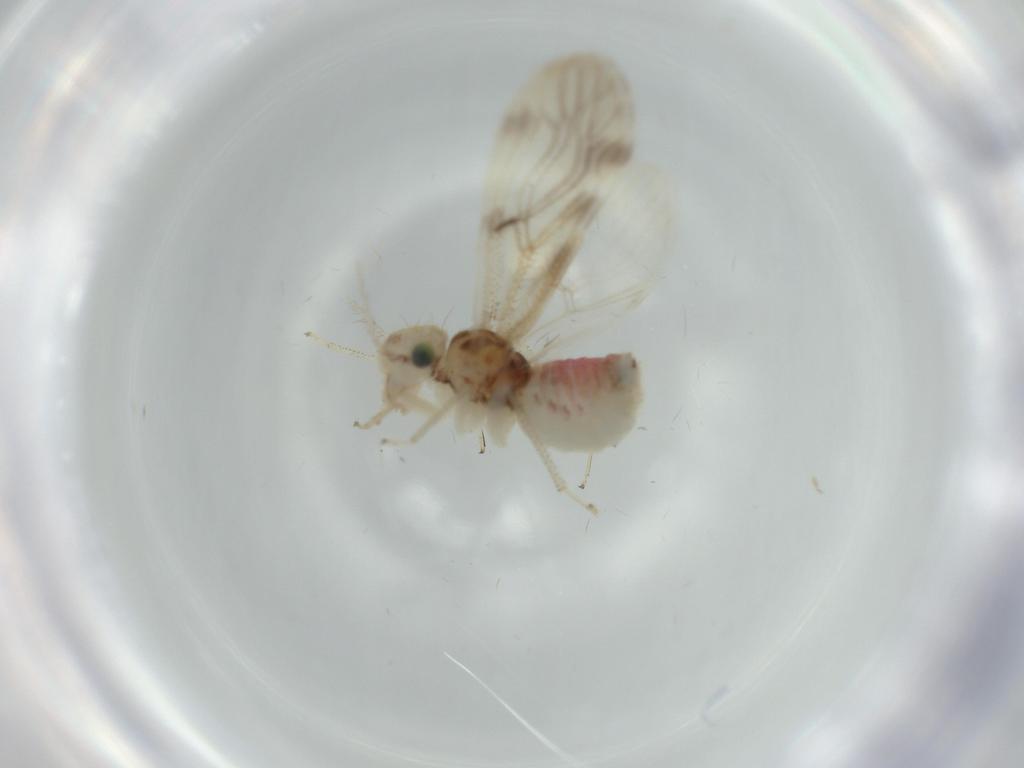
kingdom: Animalia
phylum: Arthropoda
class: Insecta
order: Psocodea
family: Pseudocaeciliidae
